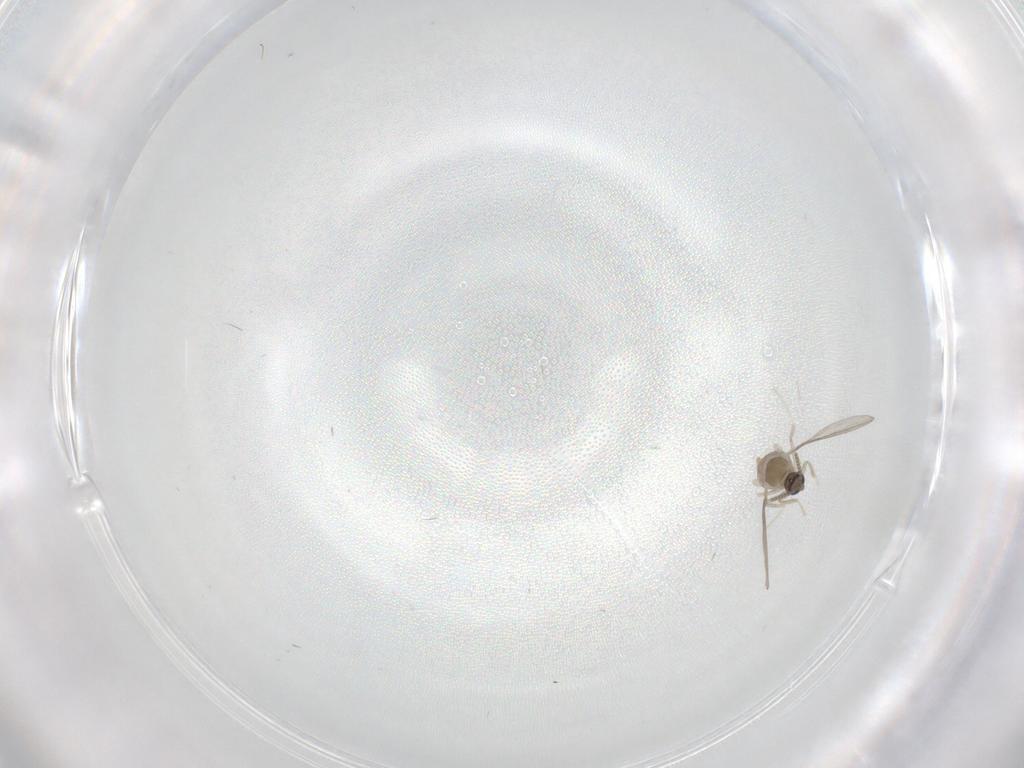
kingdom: Animalia
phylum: Arthropoda
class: Insecta
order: Diptera
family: Cecidomyiidae
